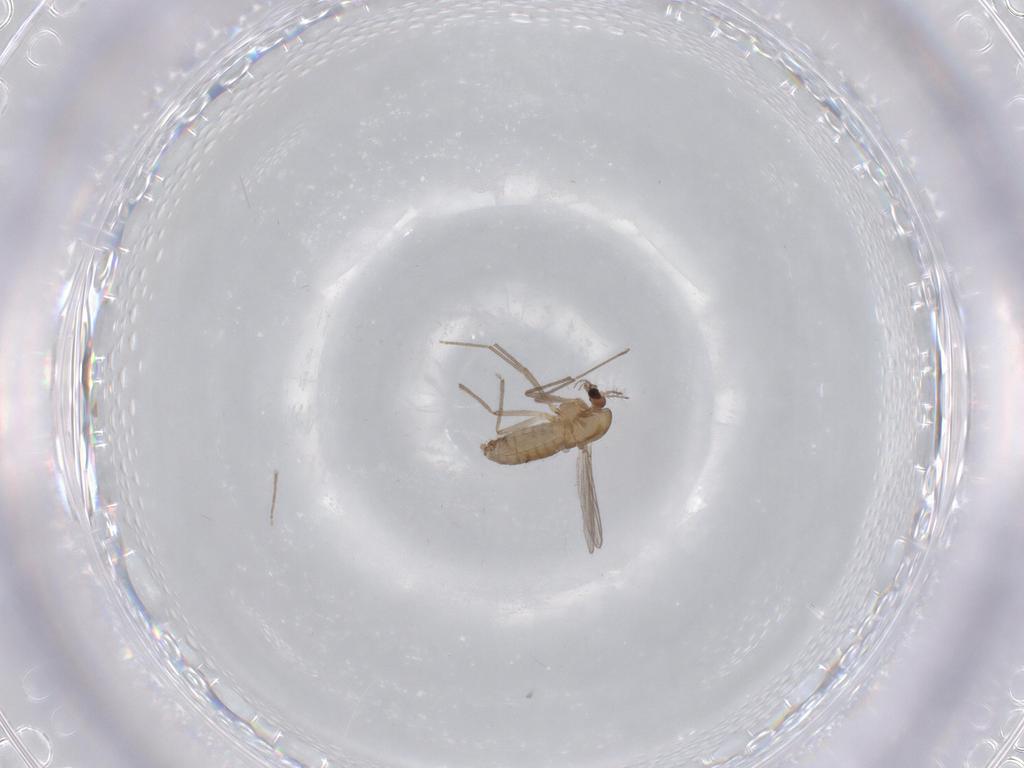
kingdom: Animalia
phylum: Arthropoda
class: Insecta
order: Diptera
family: Chironomidae
